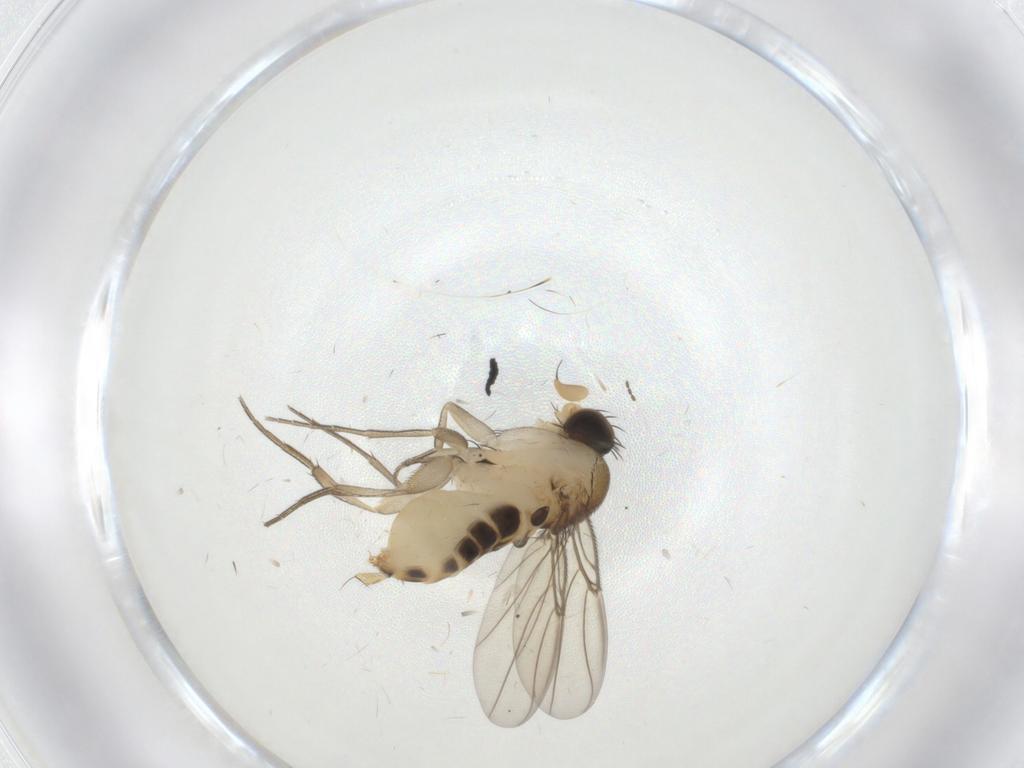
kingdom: Animalia
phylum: Arthropoda
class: Insecta
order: Diptera
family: Phoridae
